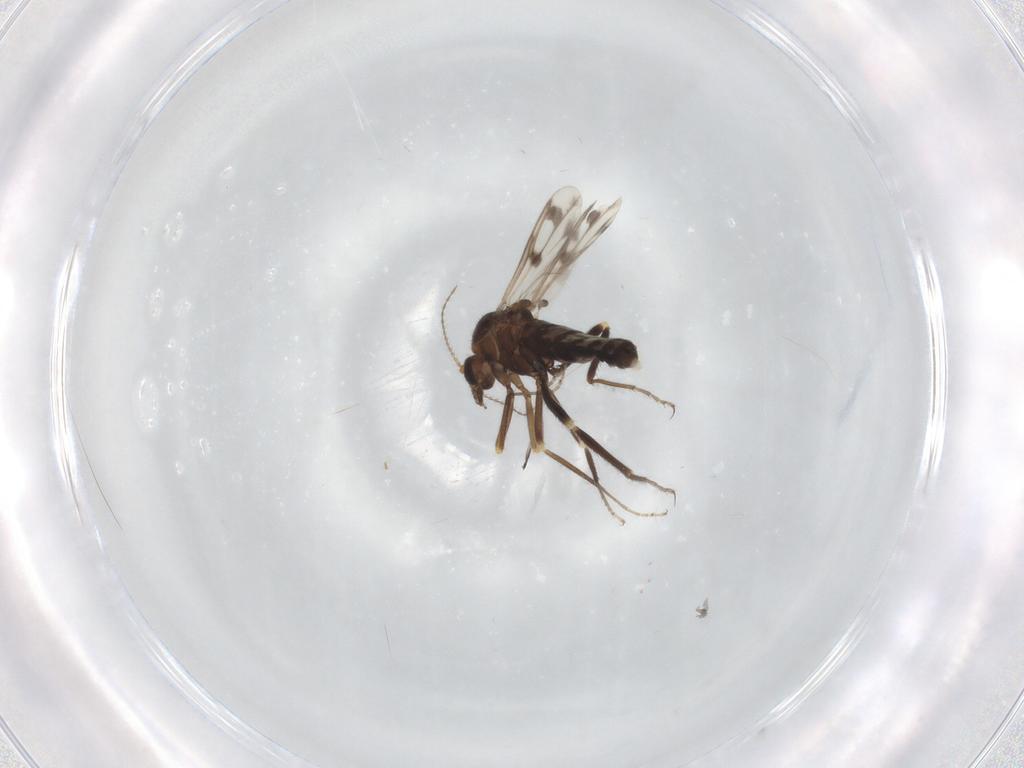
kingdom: Animalia
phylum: Arthropoda
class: Insecta
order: Diptera
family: Ceratopogonidae
